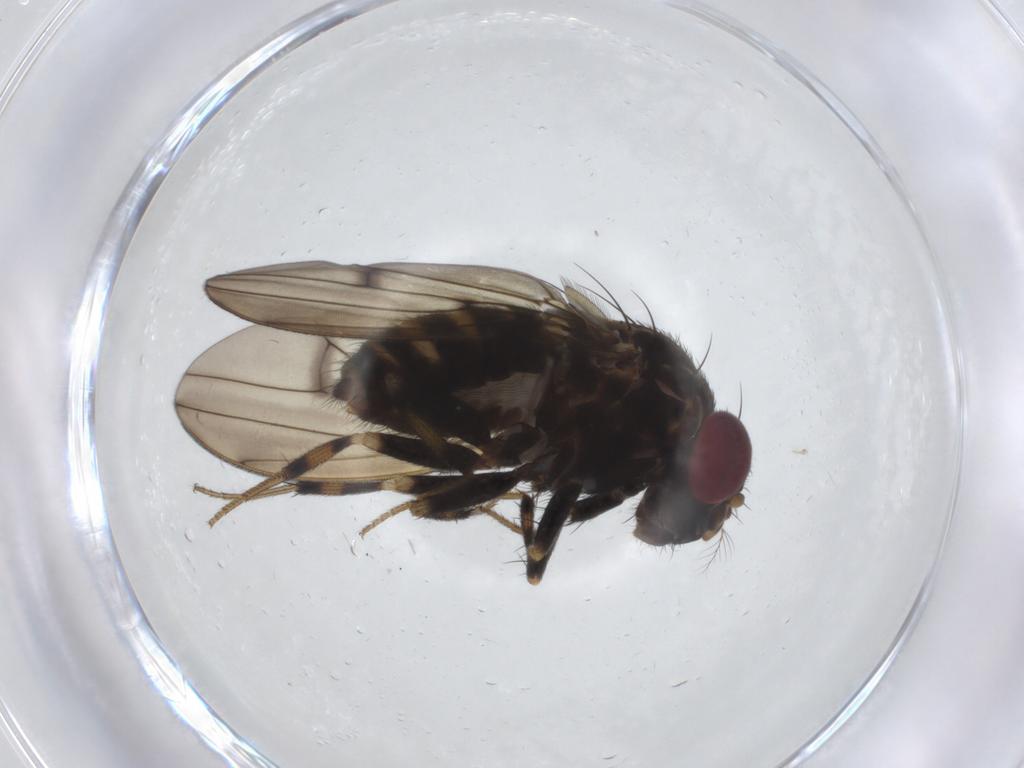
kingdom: Animalia
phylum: Arthropoda
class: Insecta
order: Diptera
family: Drosophilidae
